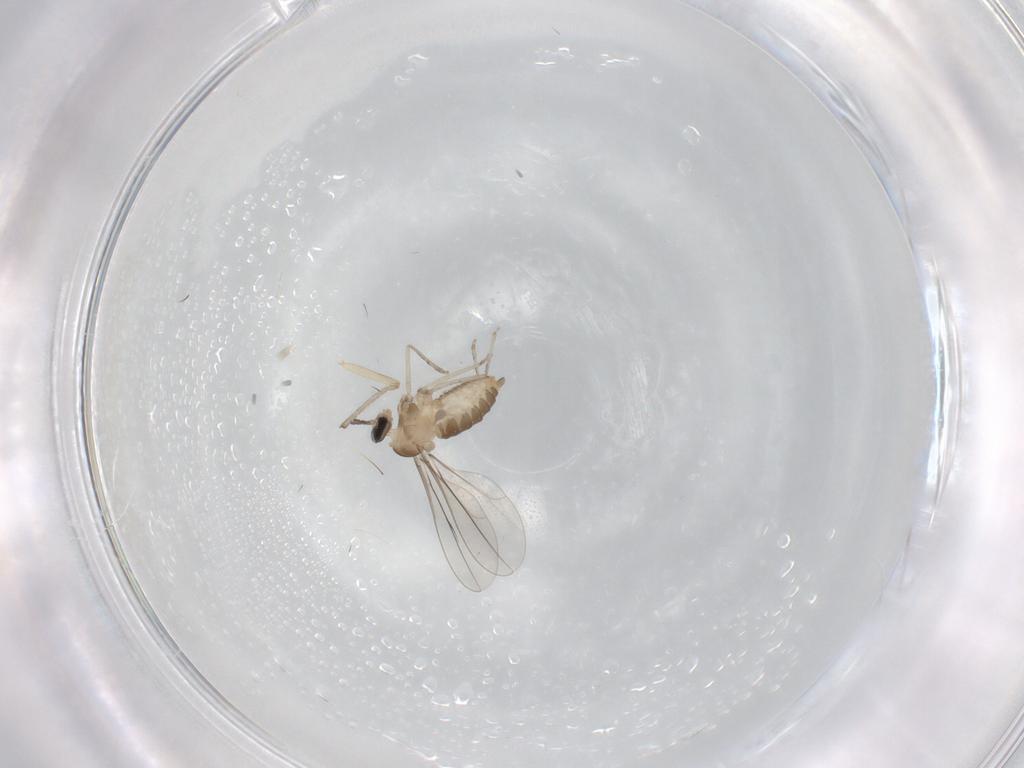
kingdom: Animalia
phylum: Arthropoda
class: Insecta
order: Diptera
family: Cecidomyiidae
